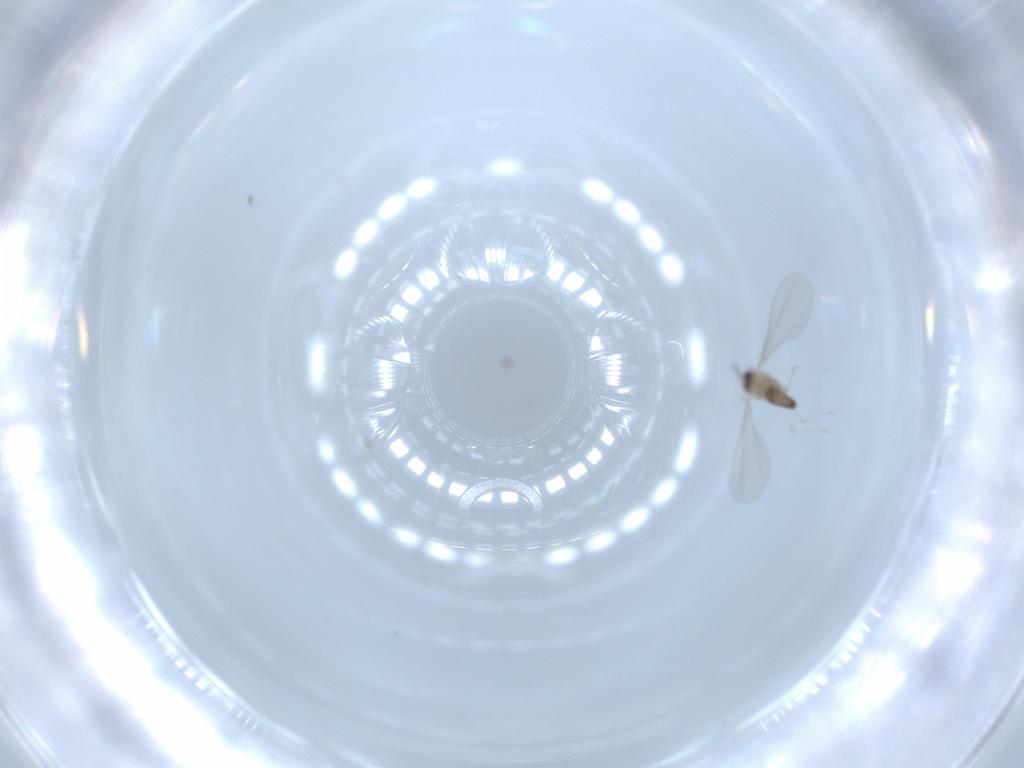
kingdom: Animalia
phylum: Arthropoda
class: Insecta
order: Diptera
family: Cecidomyiidae
